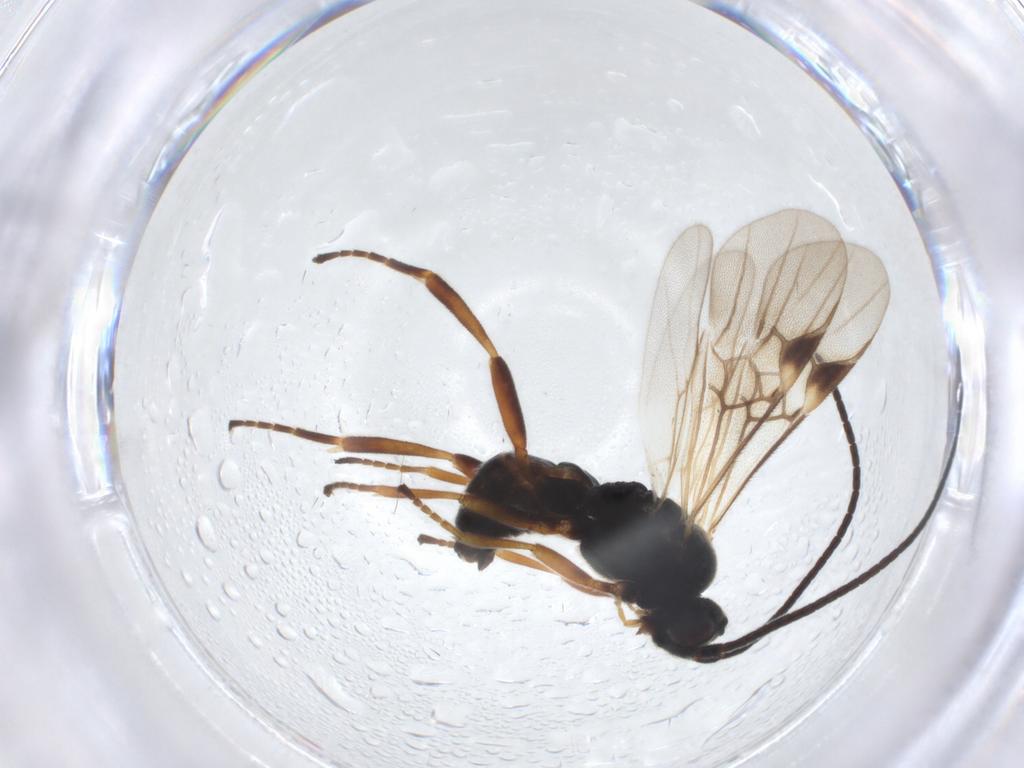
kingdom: Animalia
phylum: Arthropoda
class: Insecta
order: Hymenoptera
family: Braconidae
